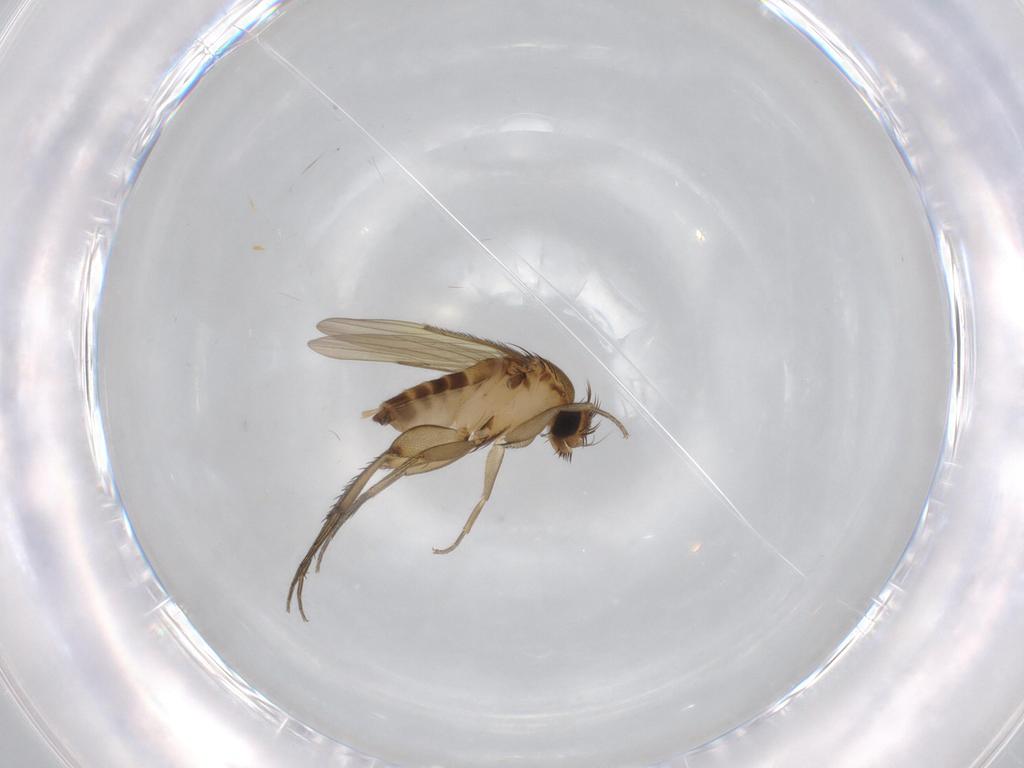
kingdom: Animalia
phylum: Arthropoda
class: Insecta
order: Diptera
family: Phoridae
